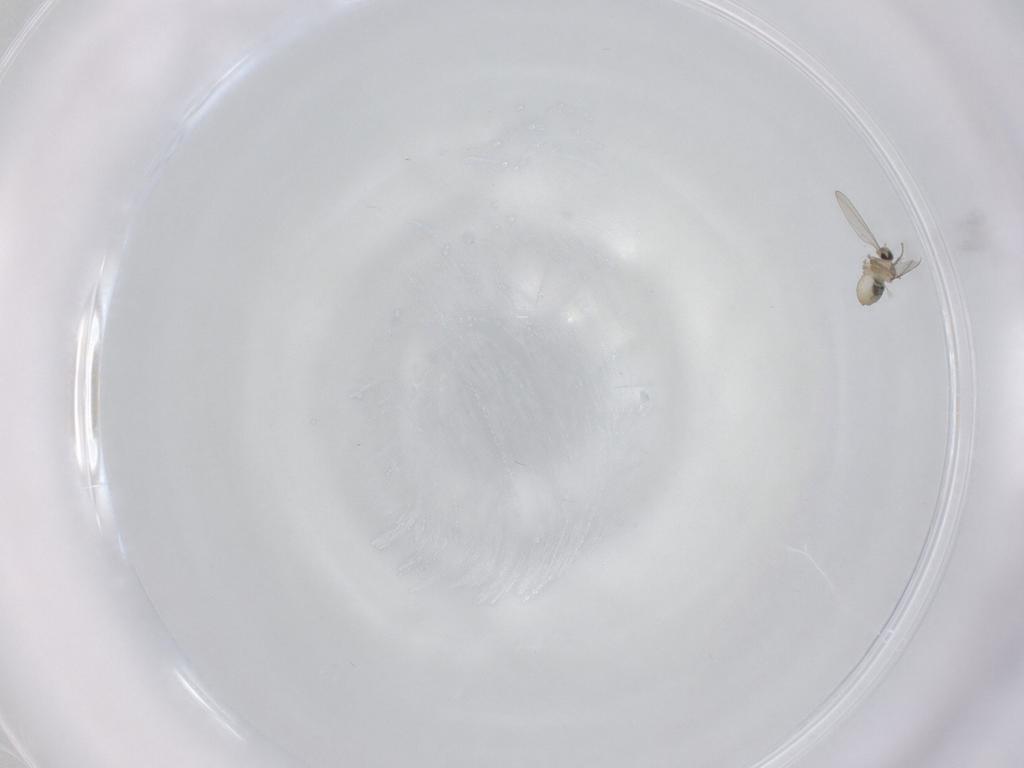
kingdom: Animalia
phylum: Arthropoda
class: Insecta
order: Diptera
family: Cecidomyiidae
